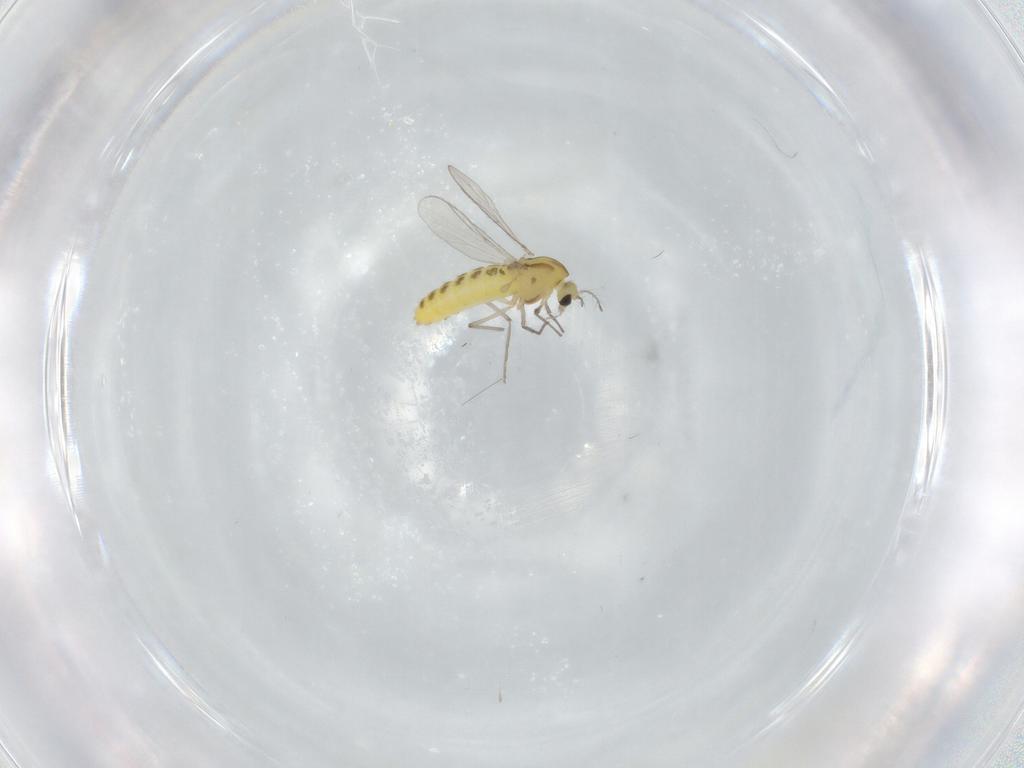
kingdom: Animalia
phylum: Arthropoda
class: Insecta
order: Diptera
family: Chironomidae
